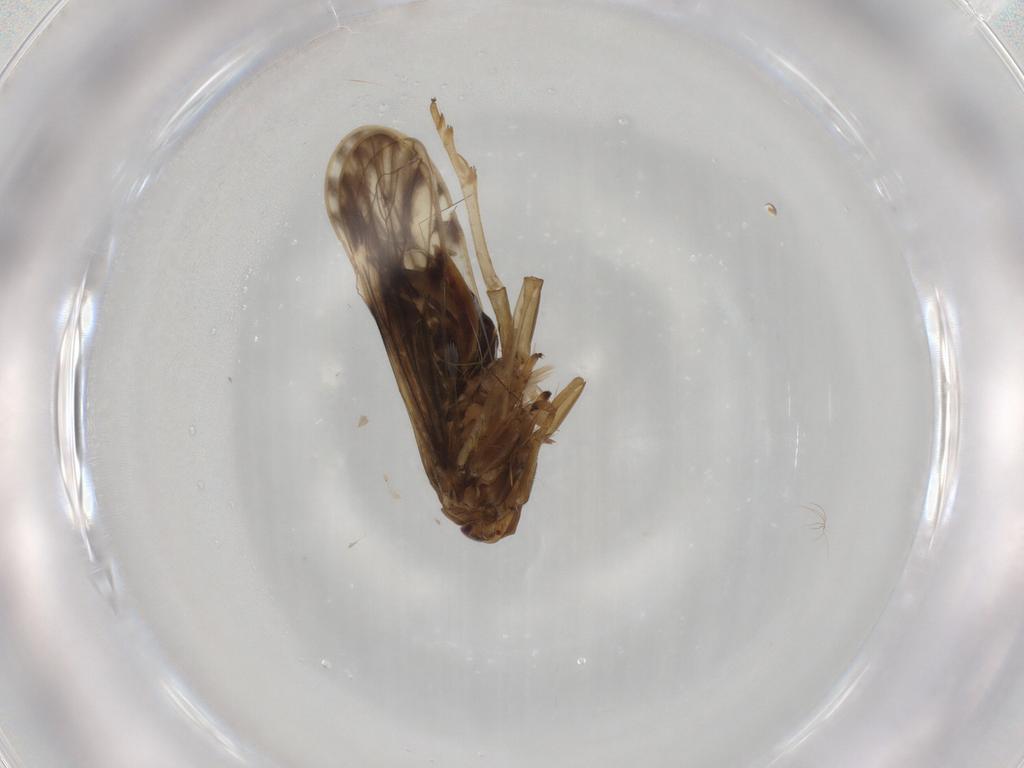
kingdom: Animalia
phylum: Arthropoda
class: Insecta
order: Hemiptera
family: Delphacidae
